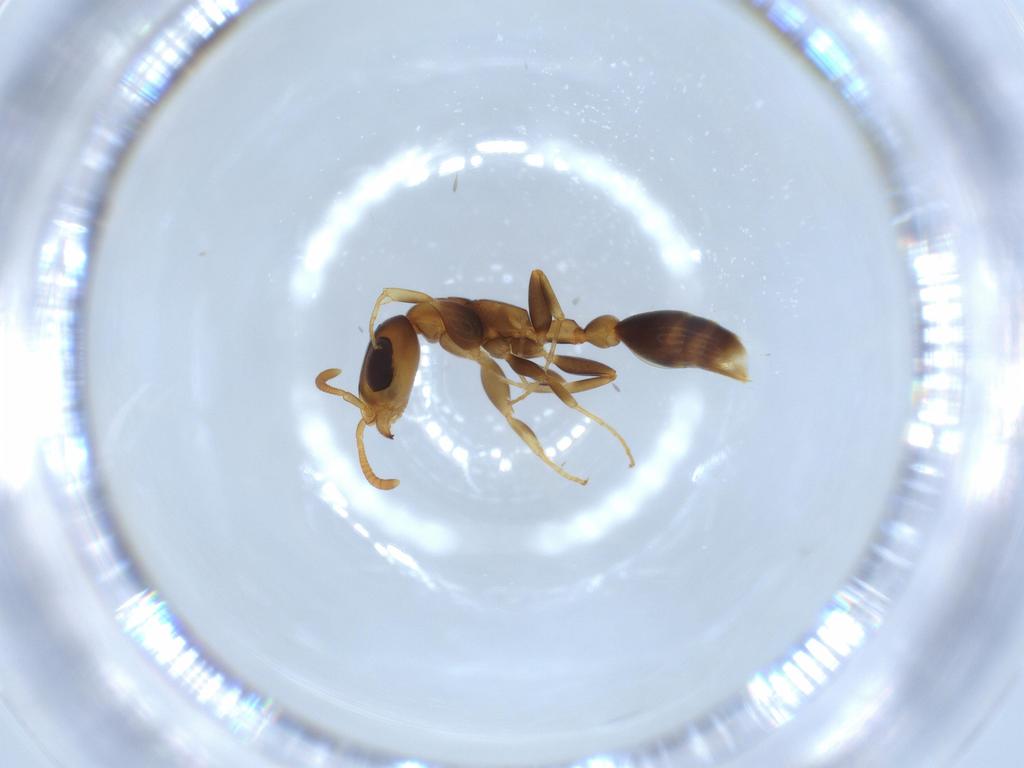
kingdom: Animalia
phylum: Arthropoda
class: Insecta
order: Hymenoptera
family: Formicidae
